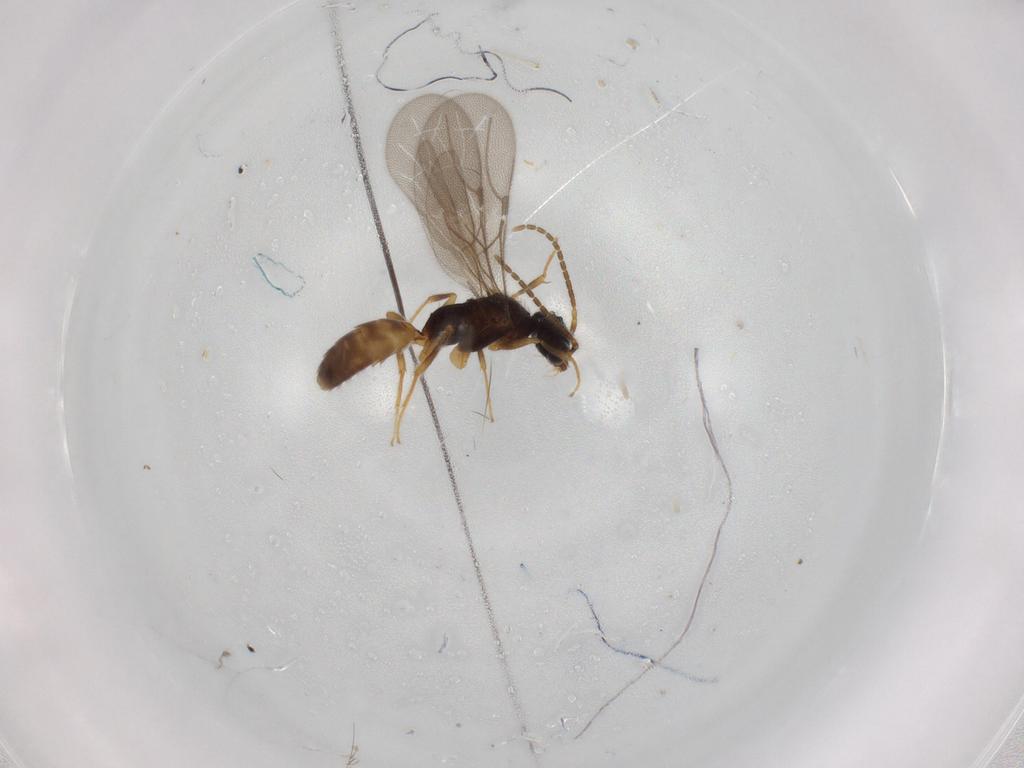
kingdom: Animalia
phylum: Arthropoda
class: Insecta
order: Hymenoptera
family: Bethylidae
